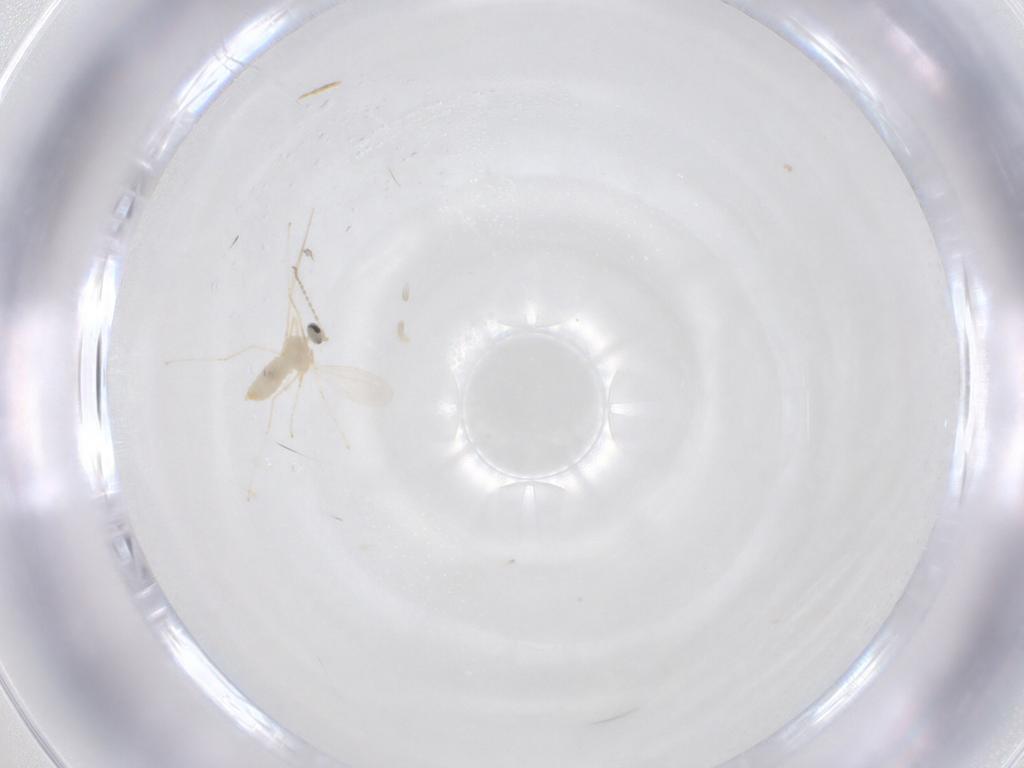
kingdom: Animalia
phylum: Arthropoda
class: Insecta
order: Diptera
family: Cecidomyiidae
